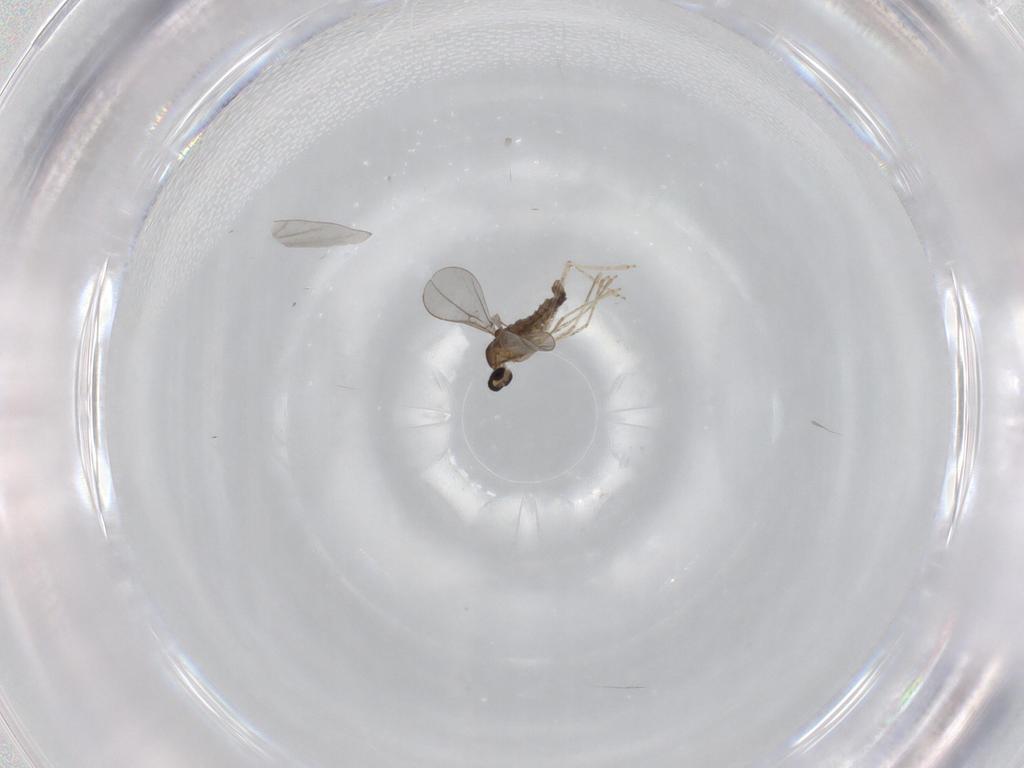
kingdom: Animalia
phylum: Arthropoda
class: Insecta
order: Diptera
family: Cecidomyiidae
